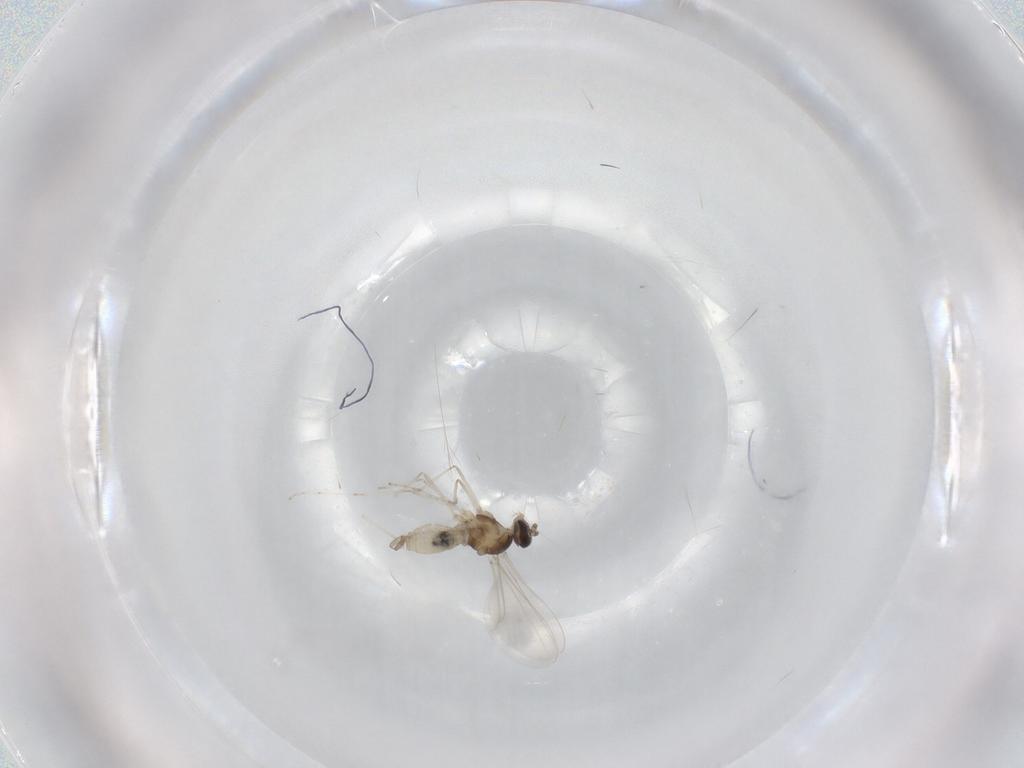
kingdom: Animalia
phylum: Arthropoda
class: Insecta
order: Diptera
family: Cecidomyiidae
